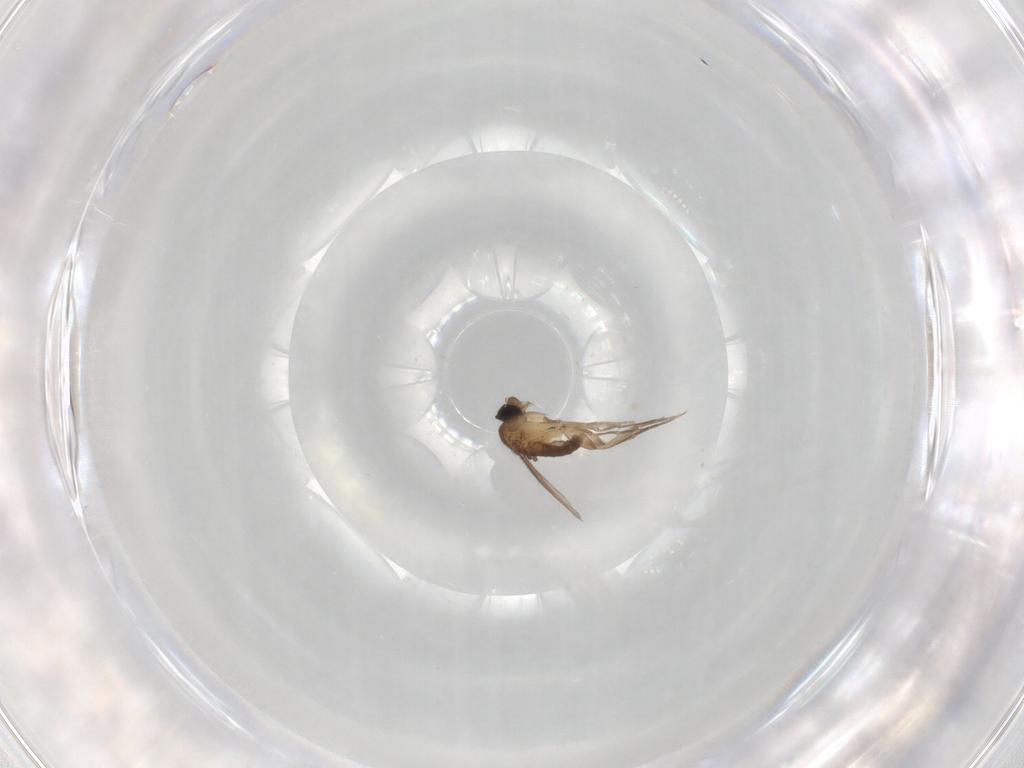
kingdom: Animalia
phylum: Arthropoda
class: Insecta
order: Diptera
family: Phoridae
